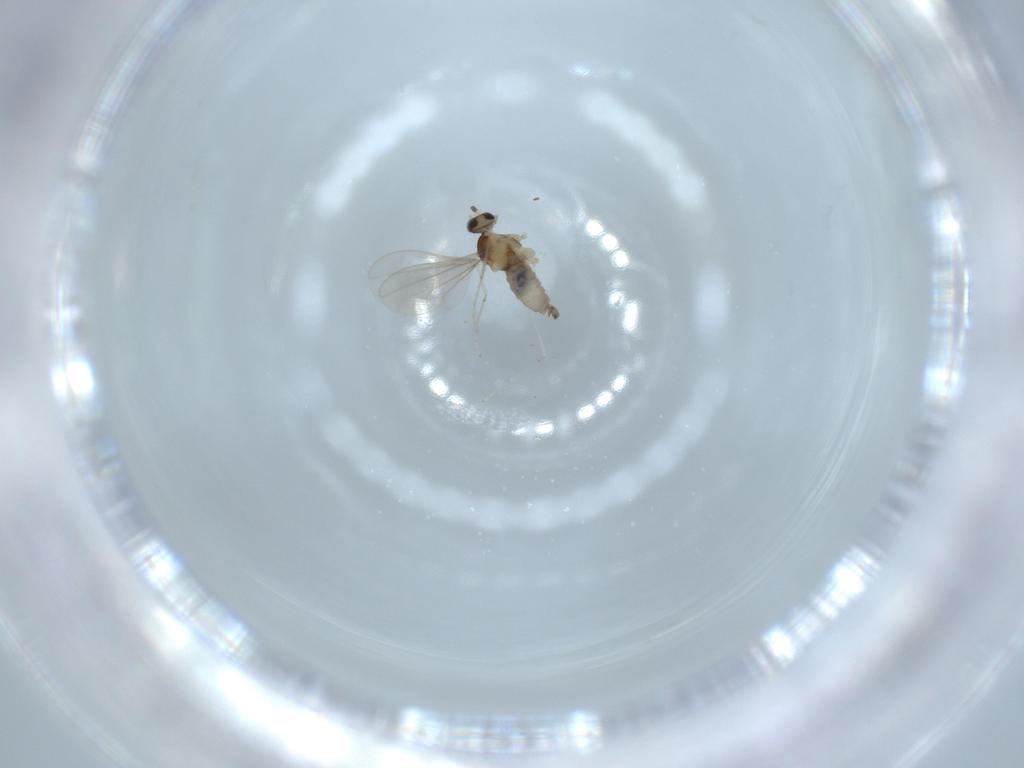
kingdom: Animalia
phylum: Arthropoda
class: Insecta
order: Diptera
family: Cecidomyiidae
